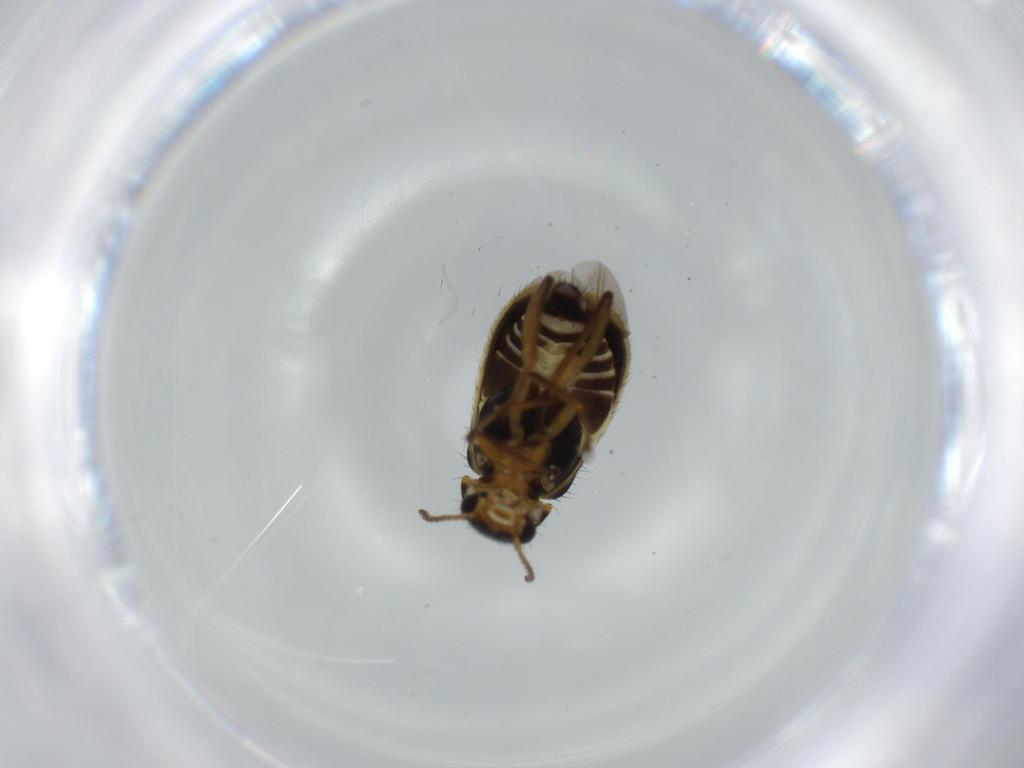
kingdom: Animalia
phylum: Arthropoda
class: Insecta
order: Coleoptera
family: Melyridae
